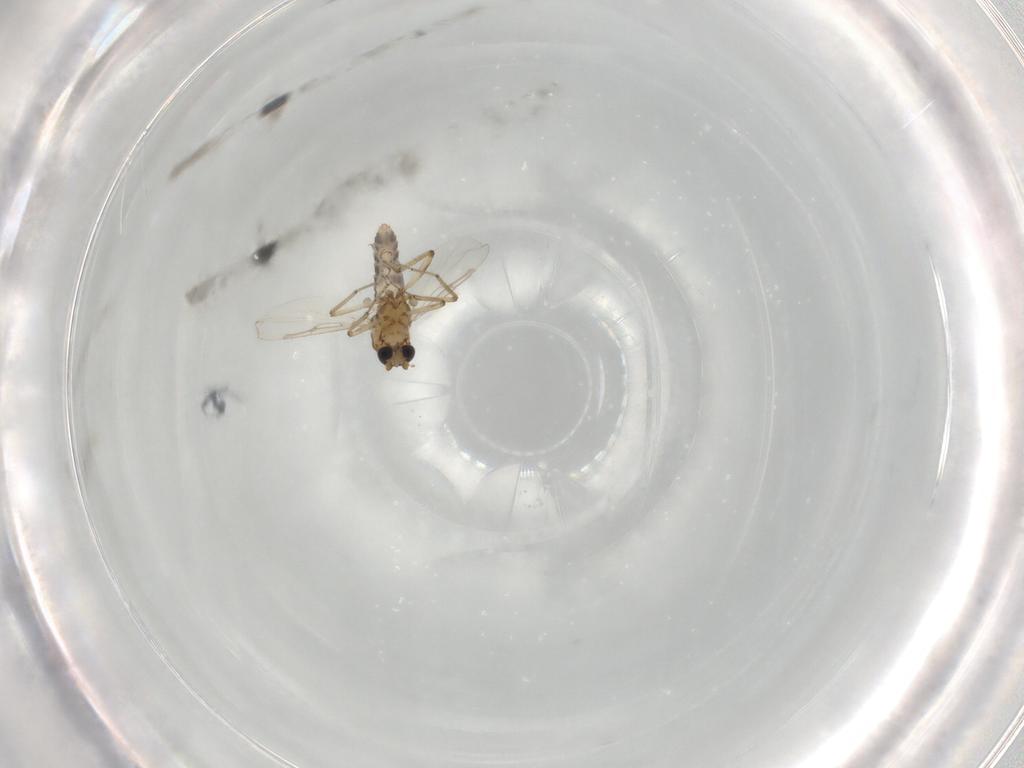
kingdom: Animalia
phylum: Arthropoda
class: Insecta
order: Diptera
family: Ceratopogonidae
